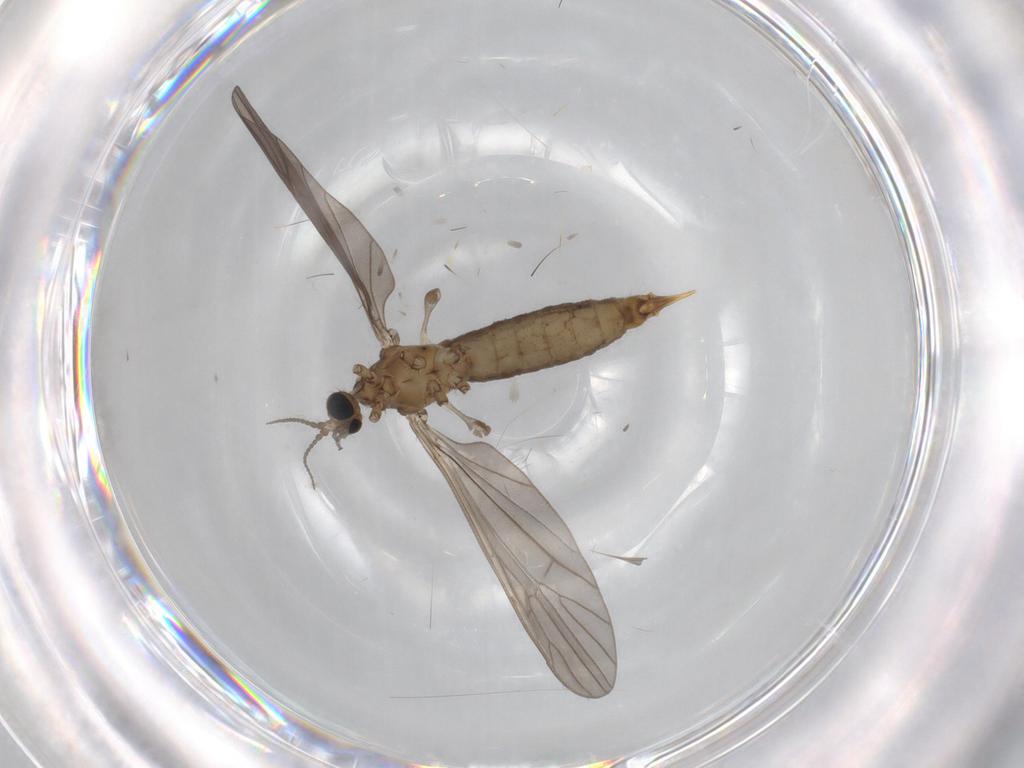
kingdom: Animalia
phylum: Arthropoda
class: Insecta
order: Diptera
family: Limoniidae
